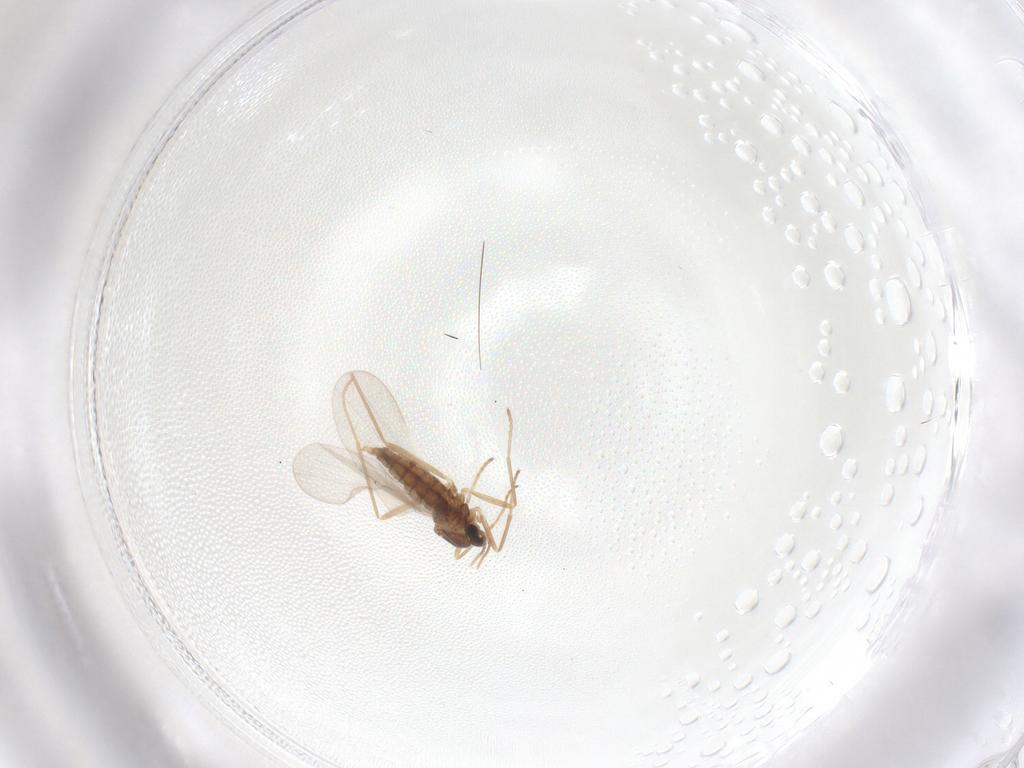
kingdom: Animalia
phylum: Arthropoda
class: Insecta
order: Diptera
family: Cecidomyiidae
